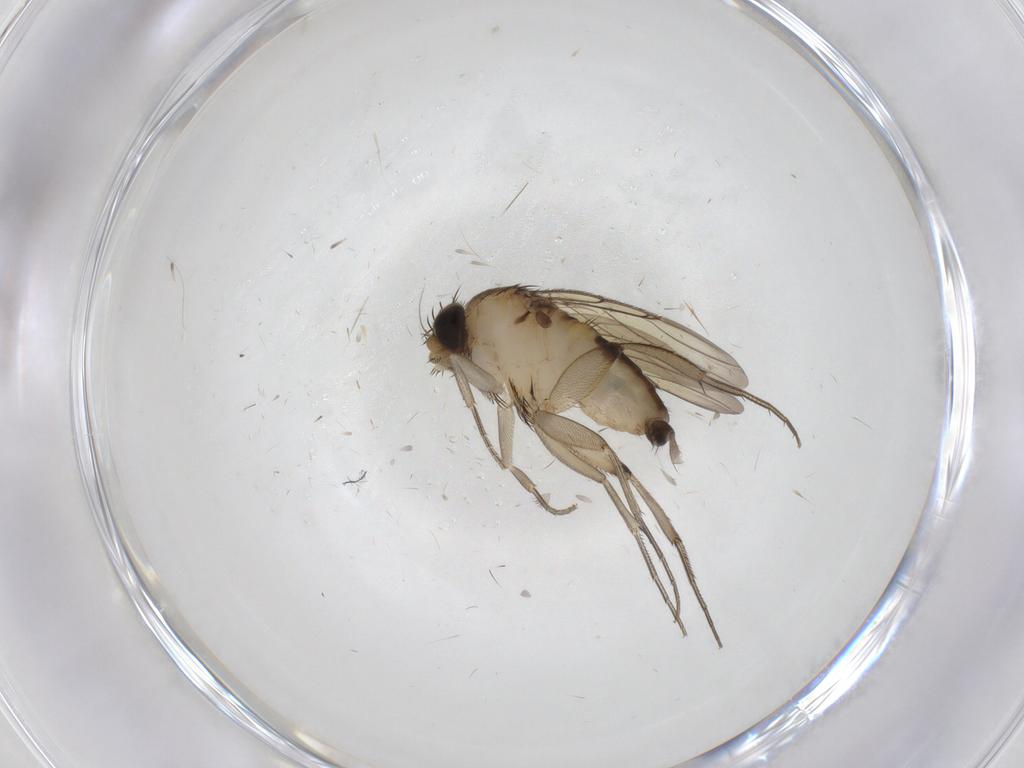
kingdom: Animalia
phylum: Arthropoda
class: Insecta
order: Diptera
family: Phoridae
